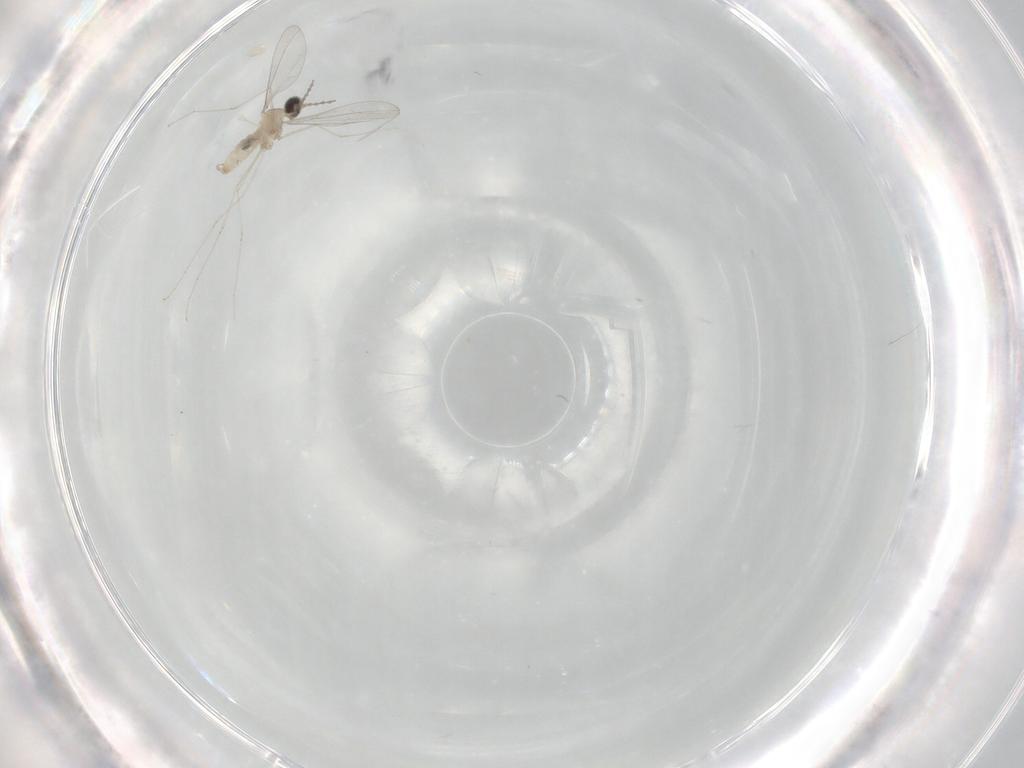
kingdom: Animalia
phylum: Arthropoda
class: Insecta
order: Diptera
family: Cecidomyiidae
